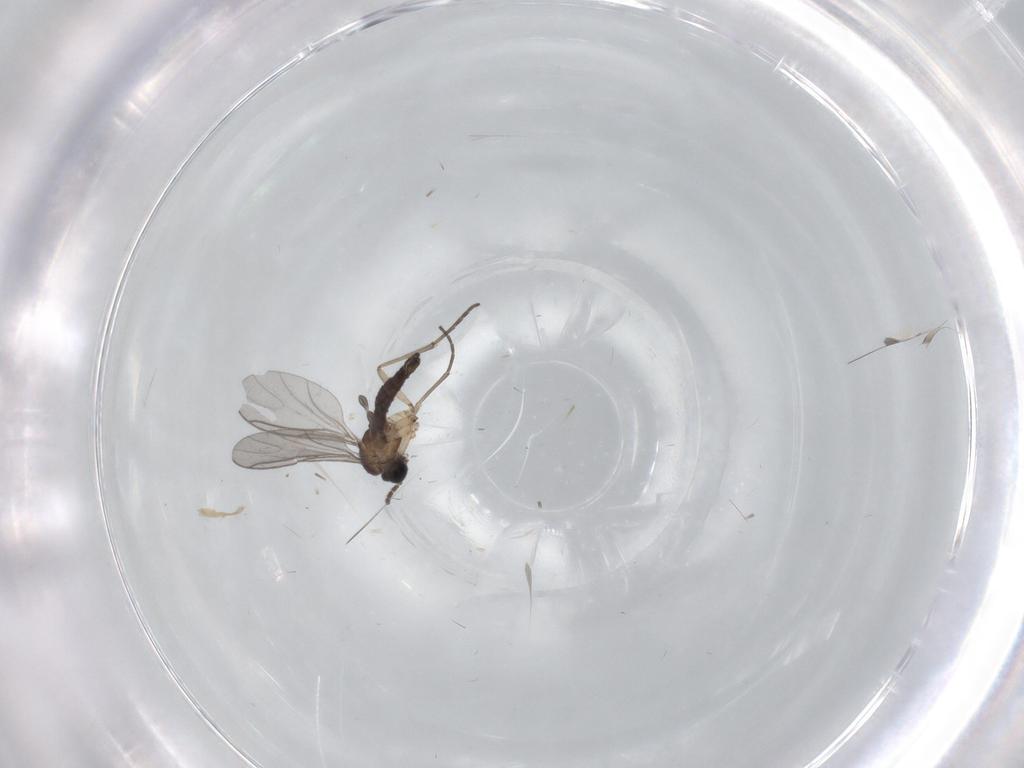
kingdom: Animalia
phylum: Arthropoda
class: Insecta
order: Diptera
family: Sciaridae
